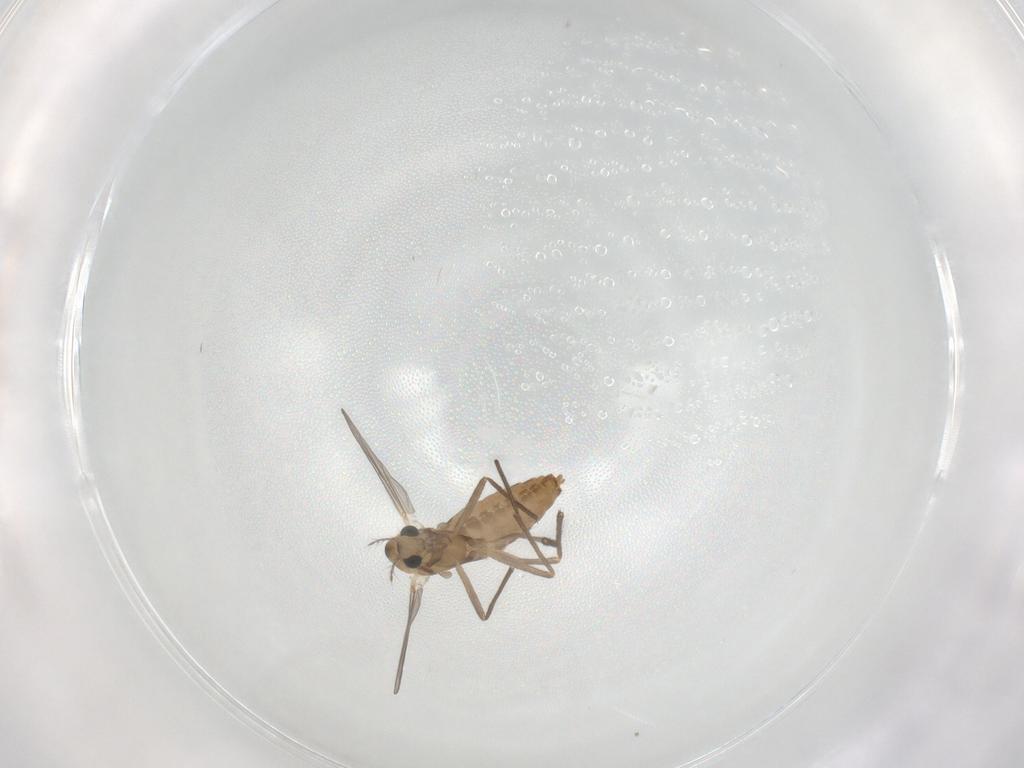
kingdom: Animalia
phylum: Arthropoda
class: Insecta
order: Diptera
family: Chironomidae
